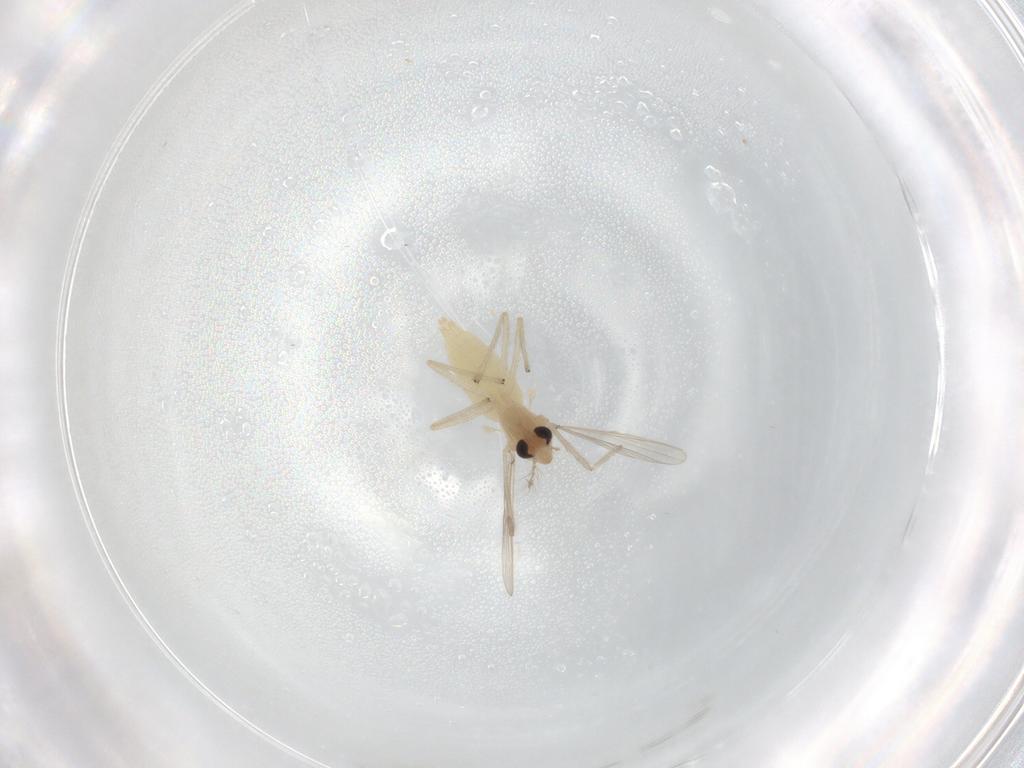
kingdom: Animalia
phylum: Arthropoda
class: Insecta
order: Diptera
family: Chironomidae
